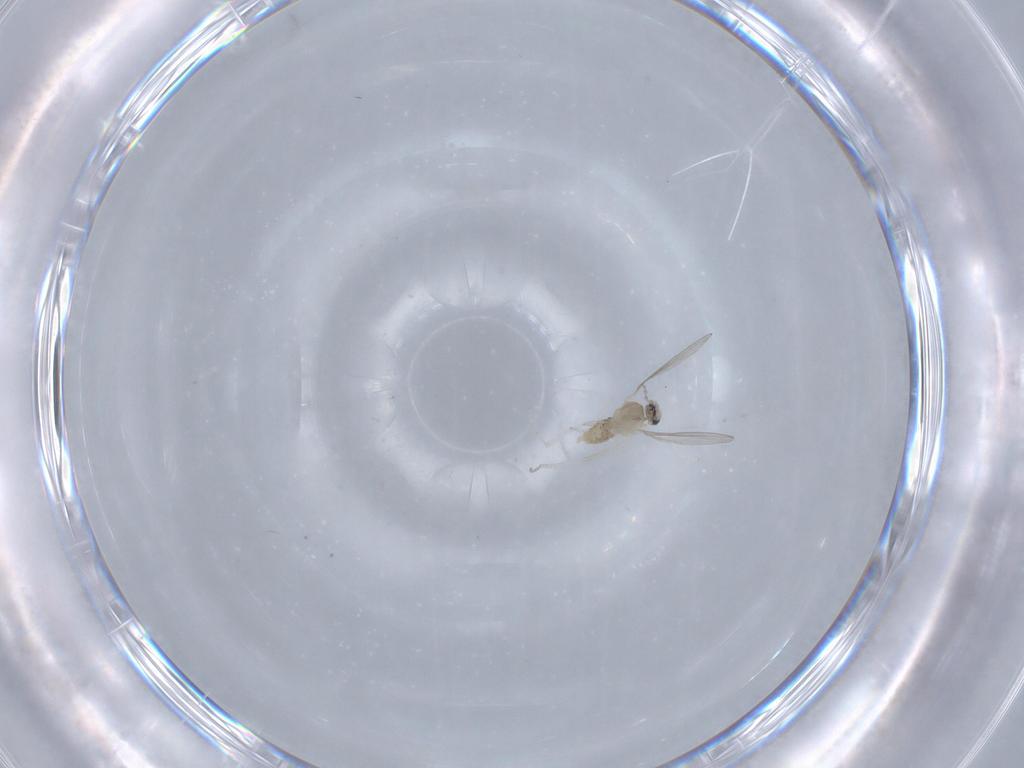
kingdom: Animalia
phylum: Arthropoda
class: Insecta
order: Diptera
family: Cecidomyiidae
